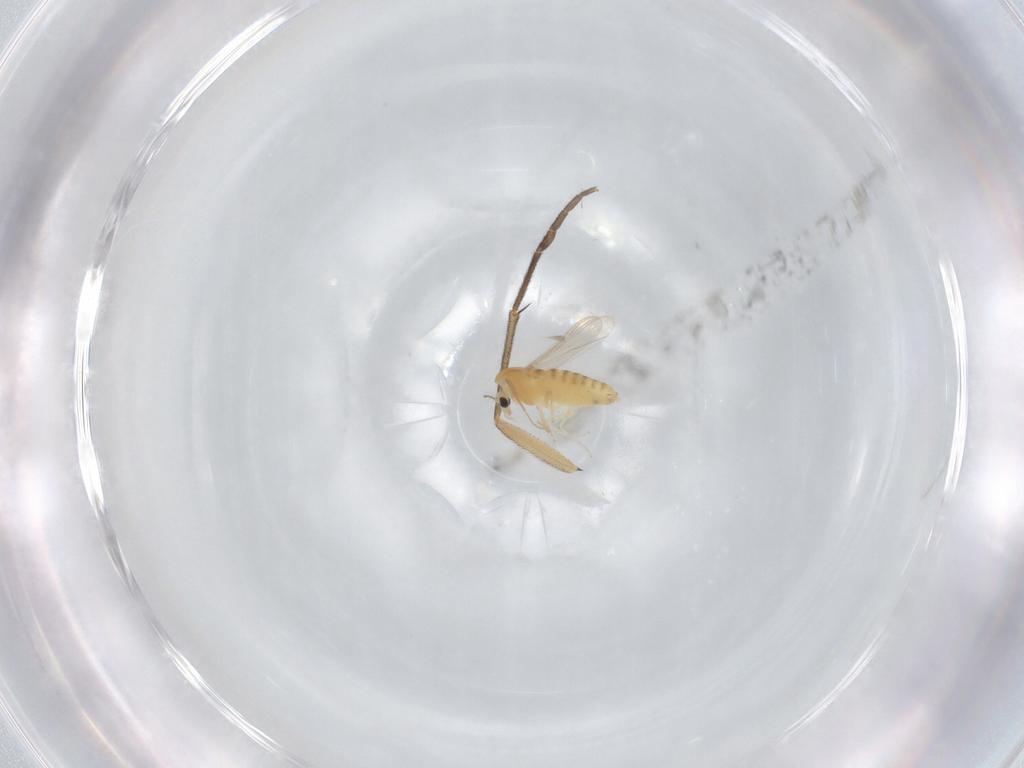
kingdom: Animalia
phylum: Arthropoda
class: Insecta
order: Diptera
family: Chironomidae
